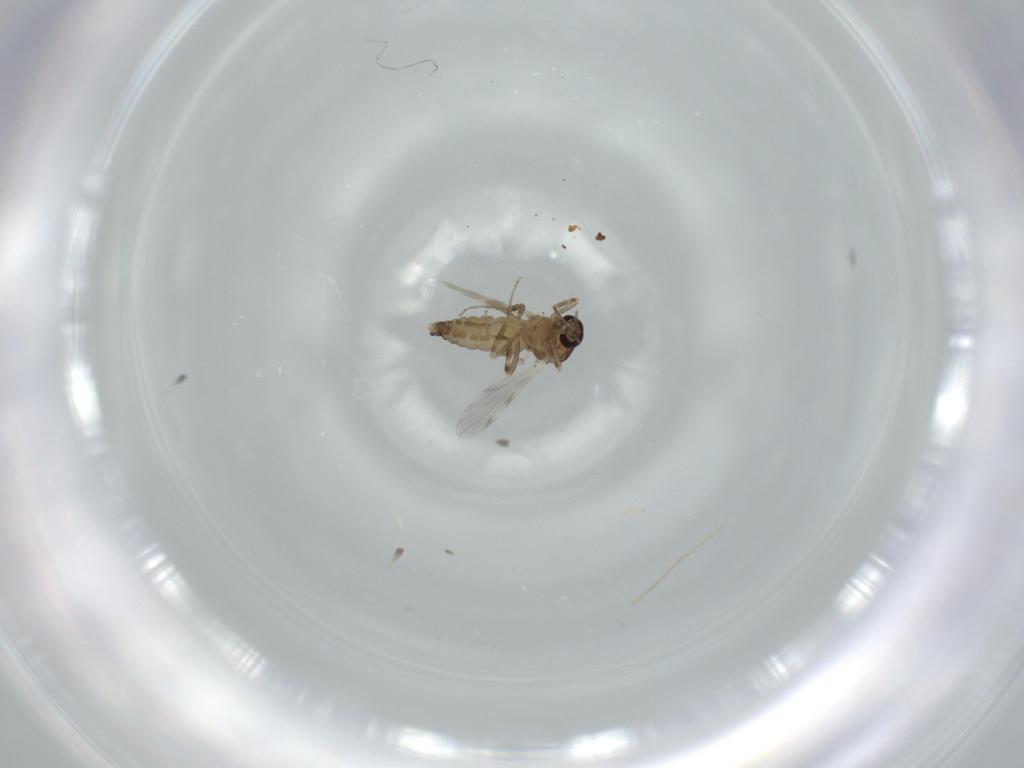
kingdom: Animalia
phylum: Arthropoda
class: Insecta
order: Diptera
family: Ceratopogonidae
